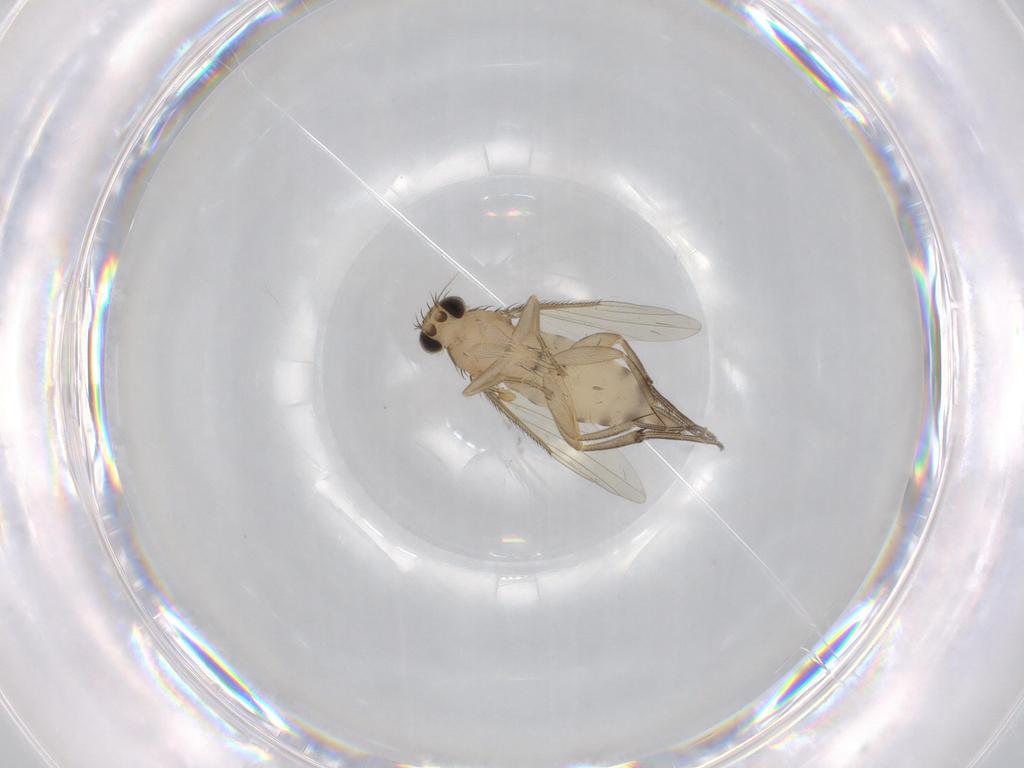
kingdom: Animalia
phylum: Arthropoda
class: Insecta
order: Diptera
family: Phoridae
